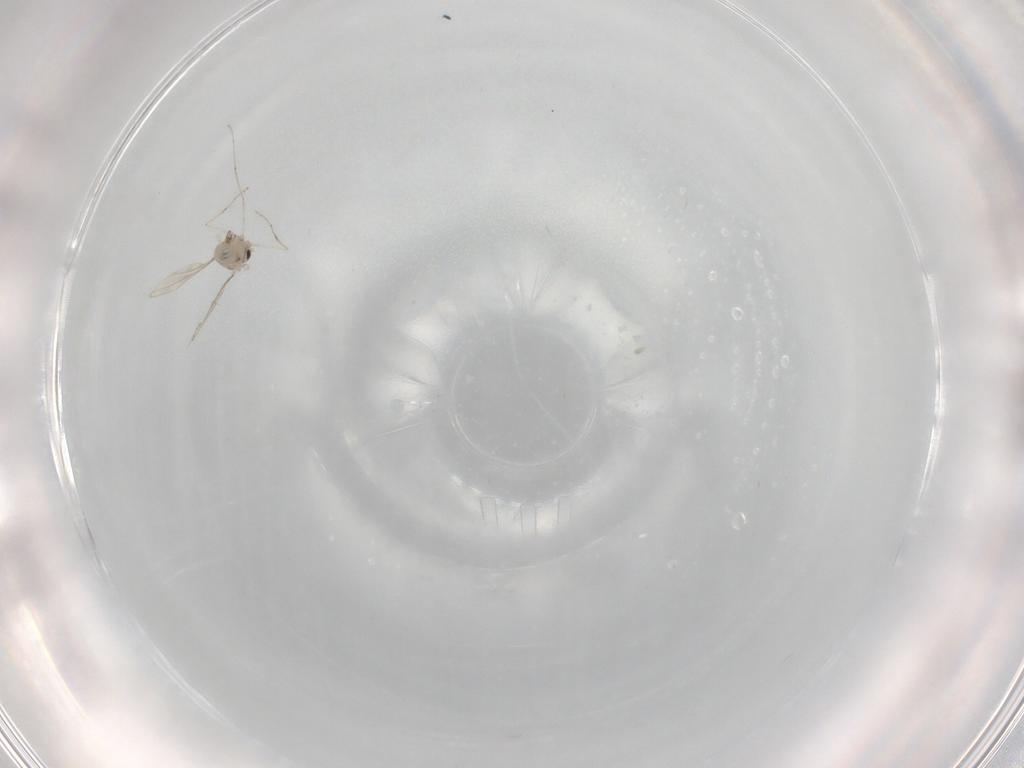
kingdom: Animalia
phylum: Arthropoda
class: Insecta
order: Diptera
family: Cecidomyiidae
